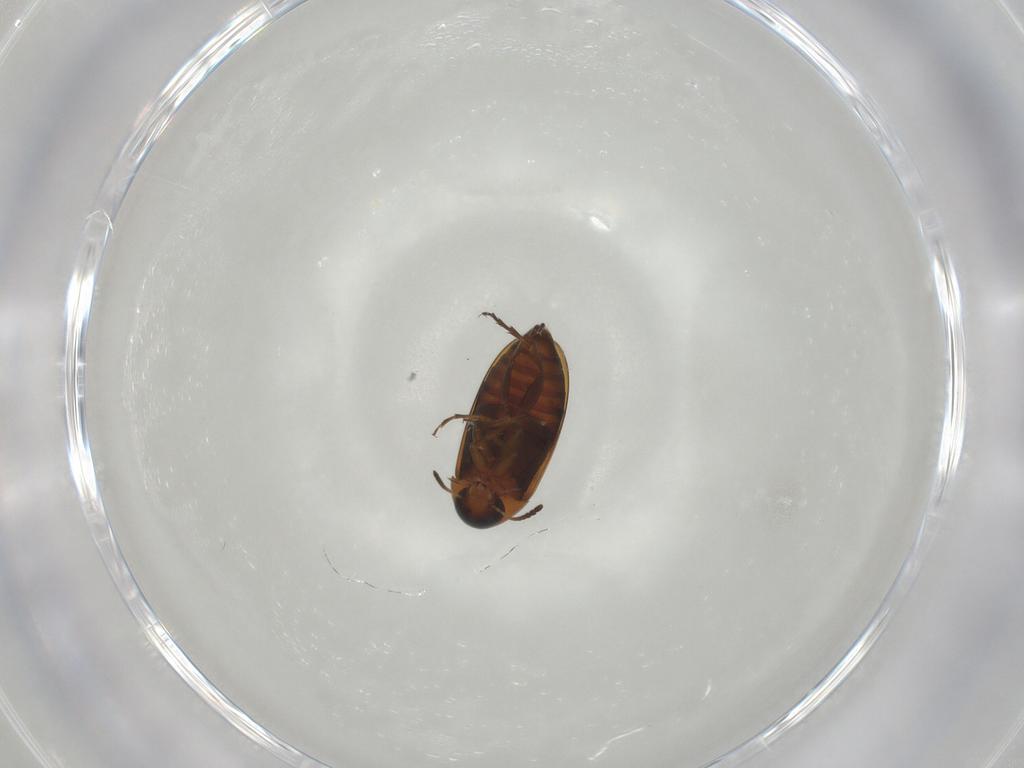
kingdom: Animalia
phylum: Arthropoda
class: Insecta
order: Coleoptera
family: Scraptiidae
